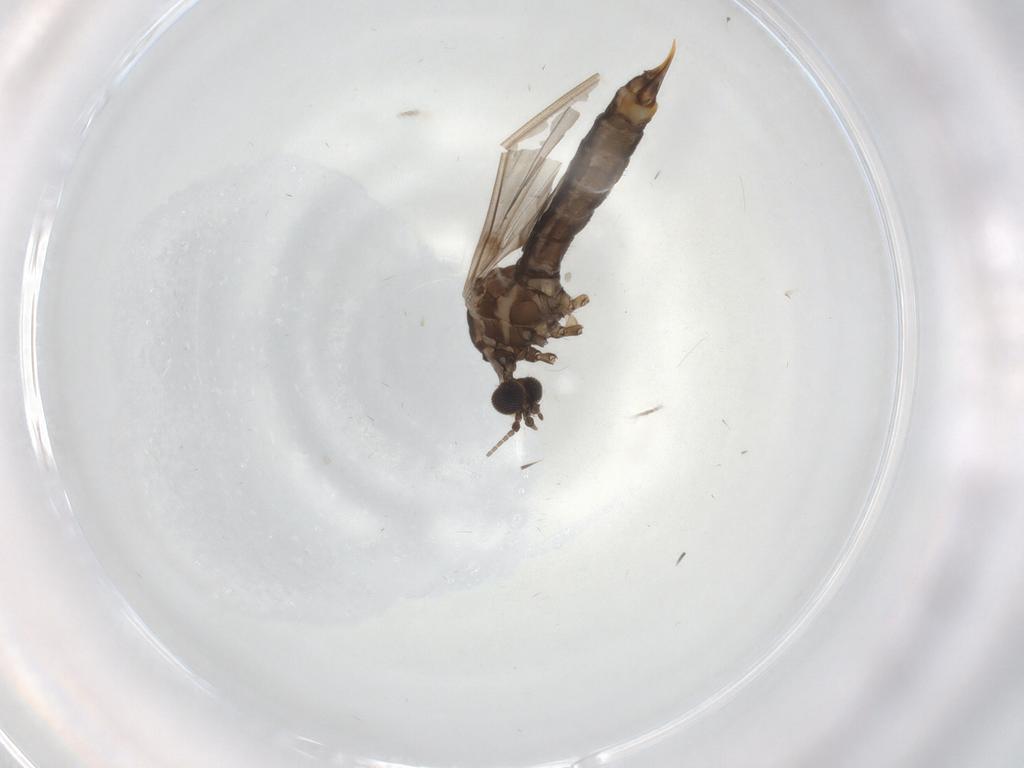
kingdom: Animalia
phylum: Arthropoda
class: Insecta
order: Diptera
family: Limoniidae
